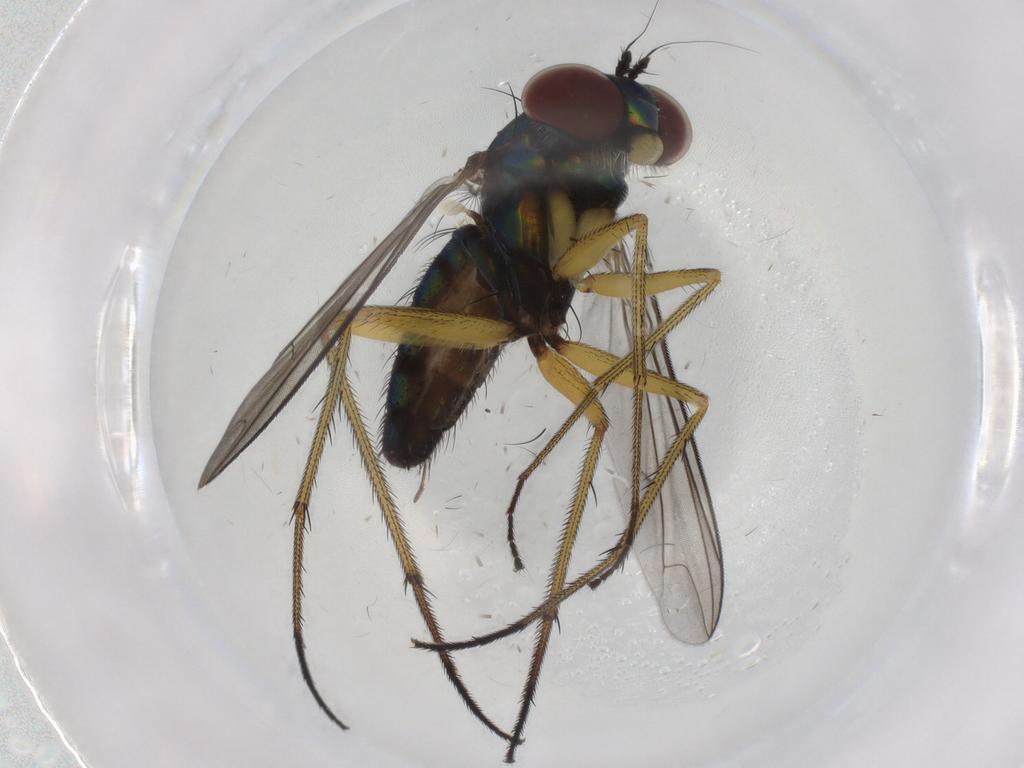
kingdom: Animalia
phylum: Arthropoda
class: Insecta
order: Diptera
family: Dolichopodidae
